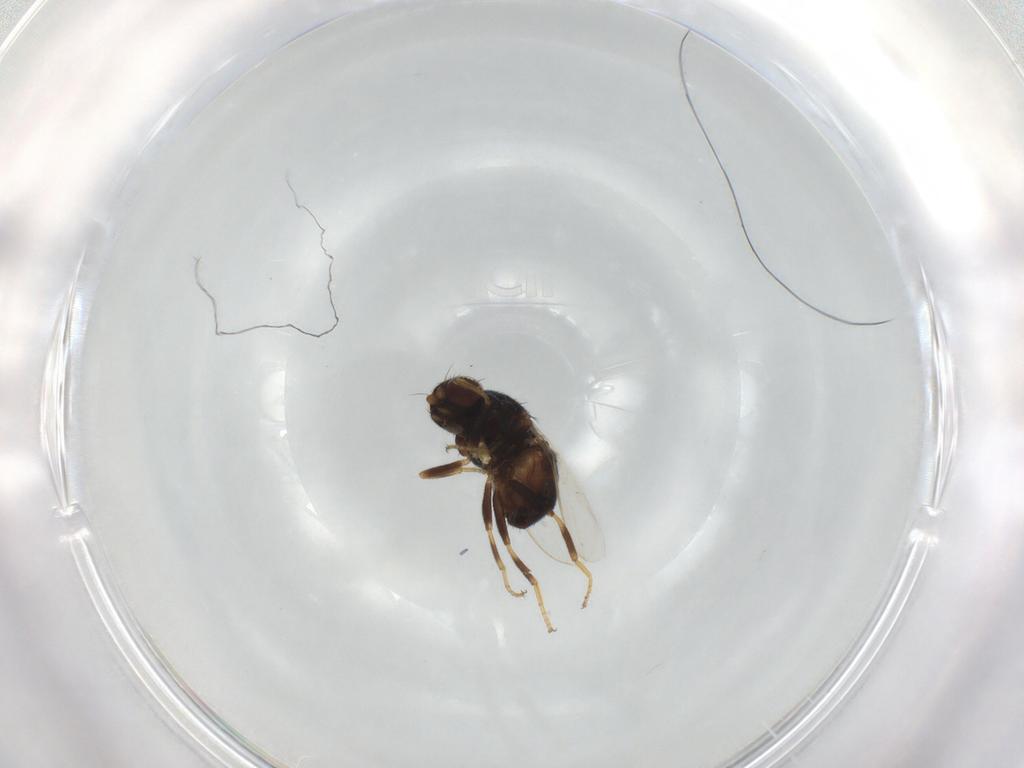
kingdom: Animalia
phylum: Arthropoda
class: Insecta
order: Diptera
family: Chloropidae
